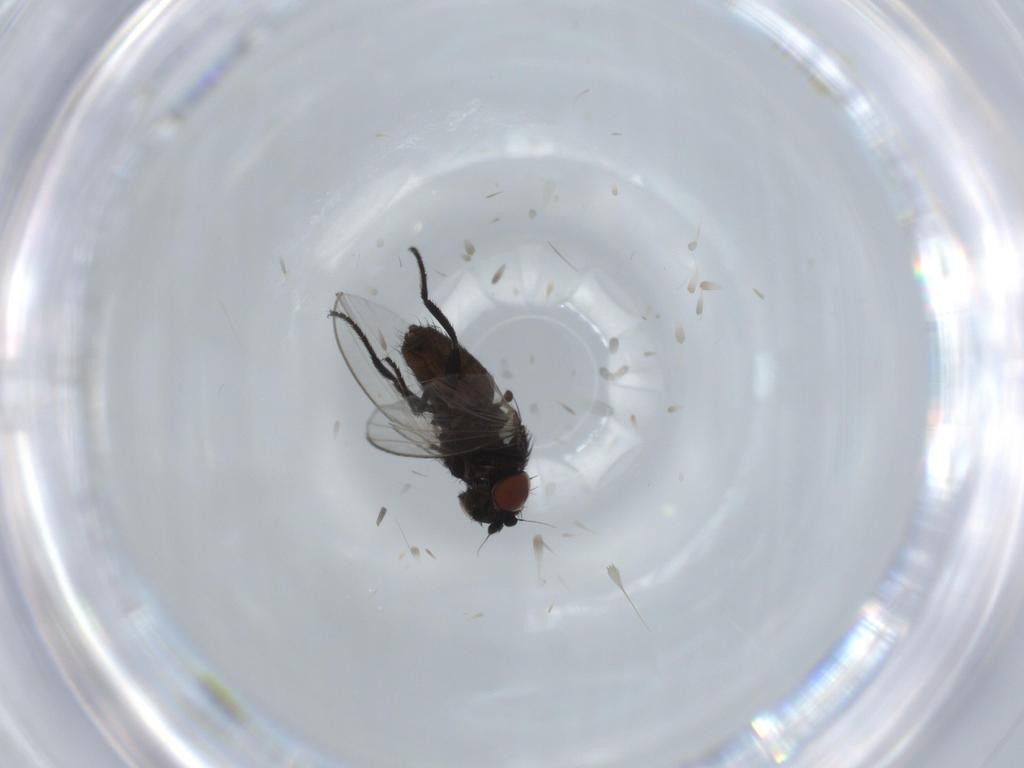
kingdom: Animalia
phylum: Arthropoda
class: Insecta
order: Diptera
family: Milichiidae
